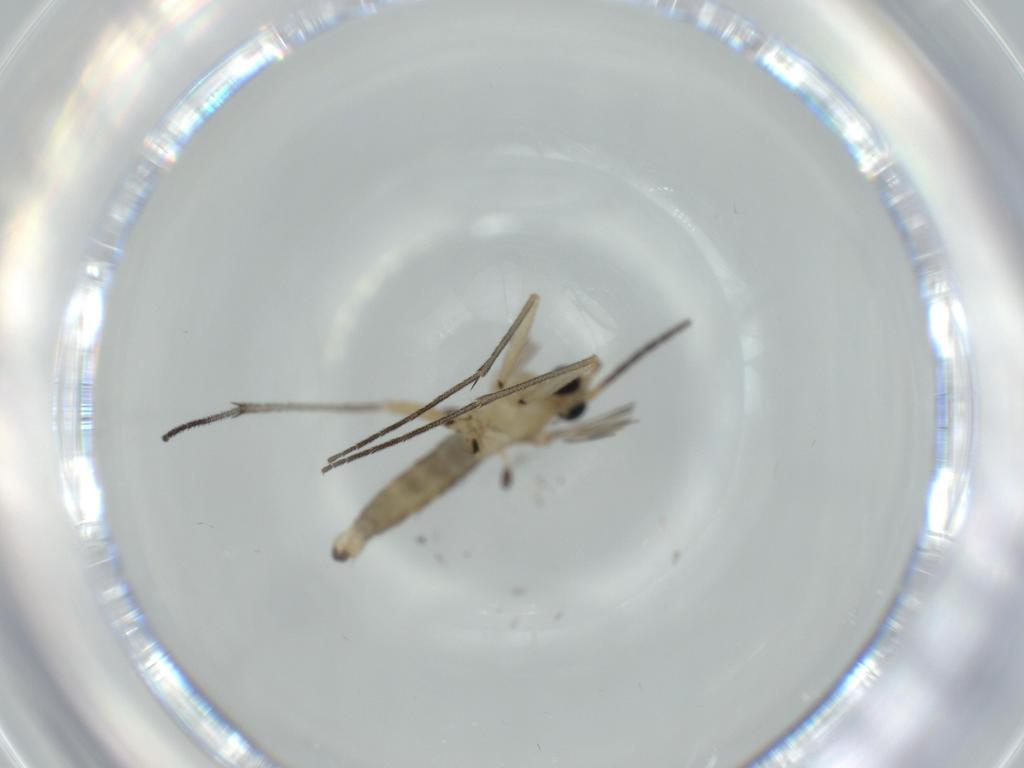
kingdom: Animalia
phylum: Arthropoda
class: Insecta
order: Diptera
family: Sciaridae
